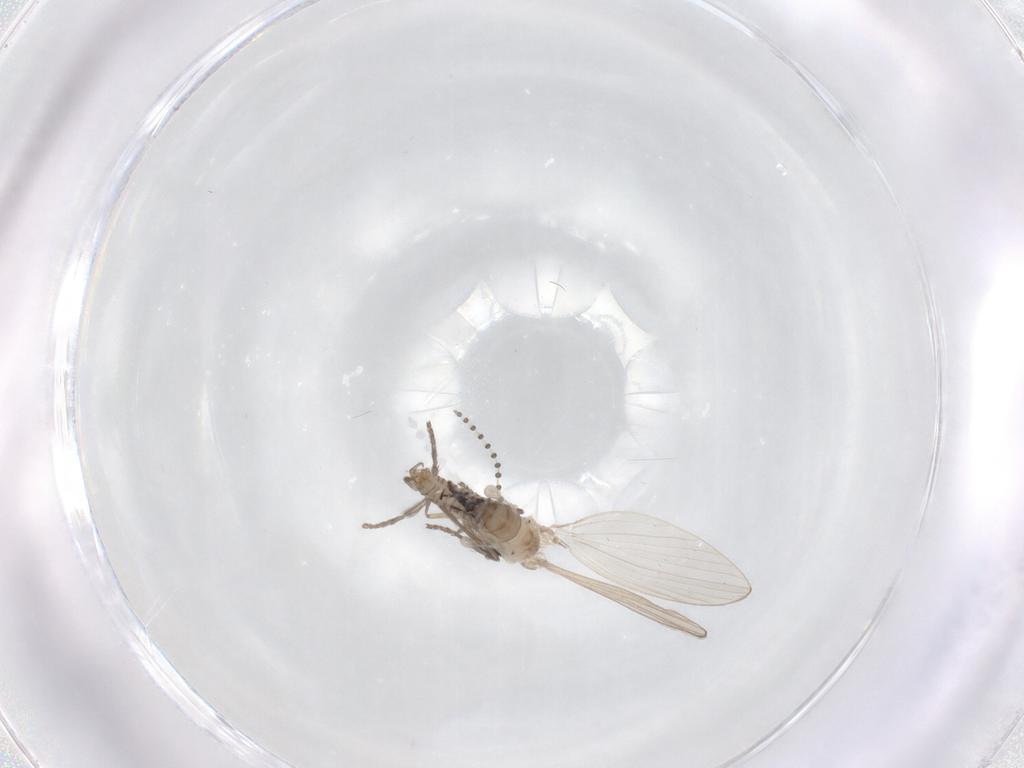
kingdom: Animalia
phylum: Arthropoda
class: Insecta
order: Diptera
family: Psychodidae
